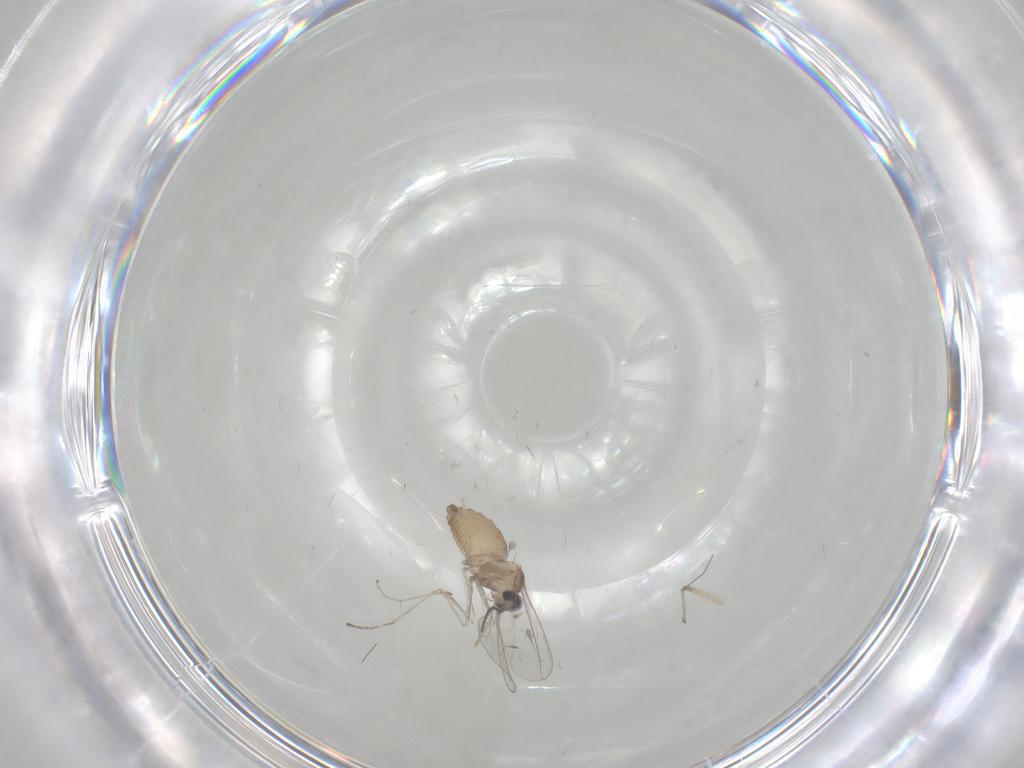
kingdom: Animalia
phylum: Arthropoda
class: Insecta
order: Diptera
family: Cecidomyiidae
